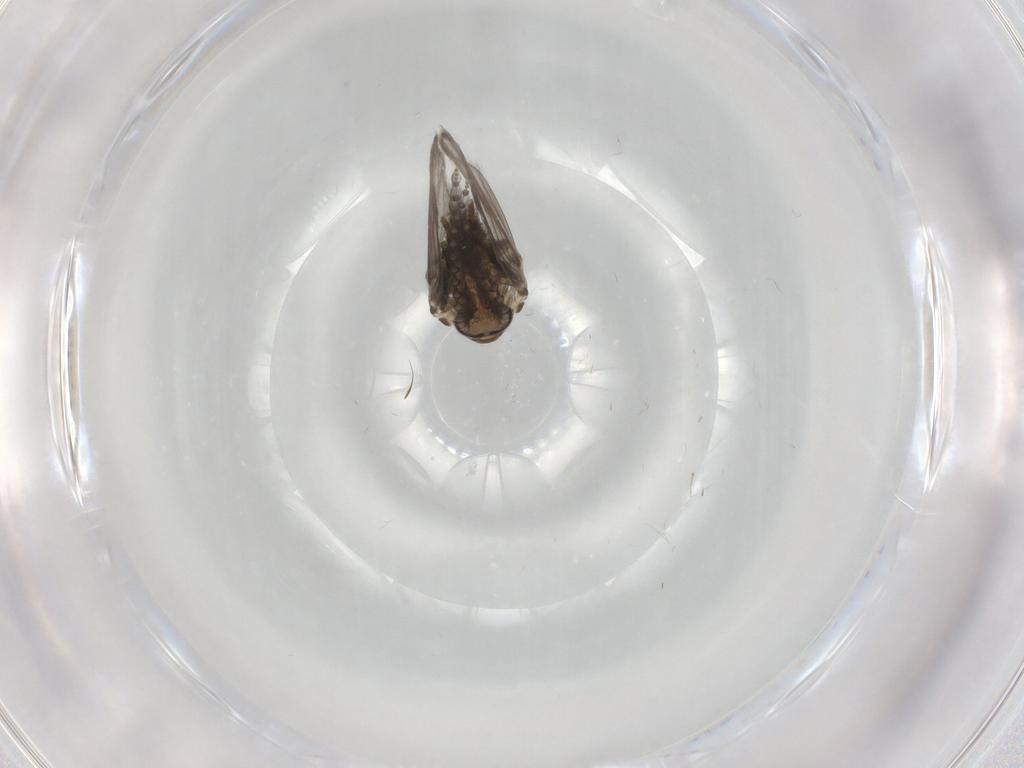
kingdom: Animalia
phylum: Arthropoda
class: Insecta
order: Diptera
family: Psychodidae
